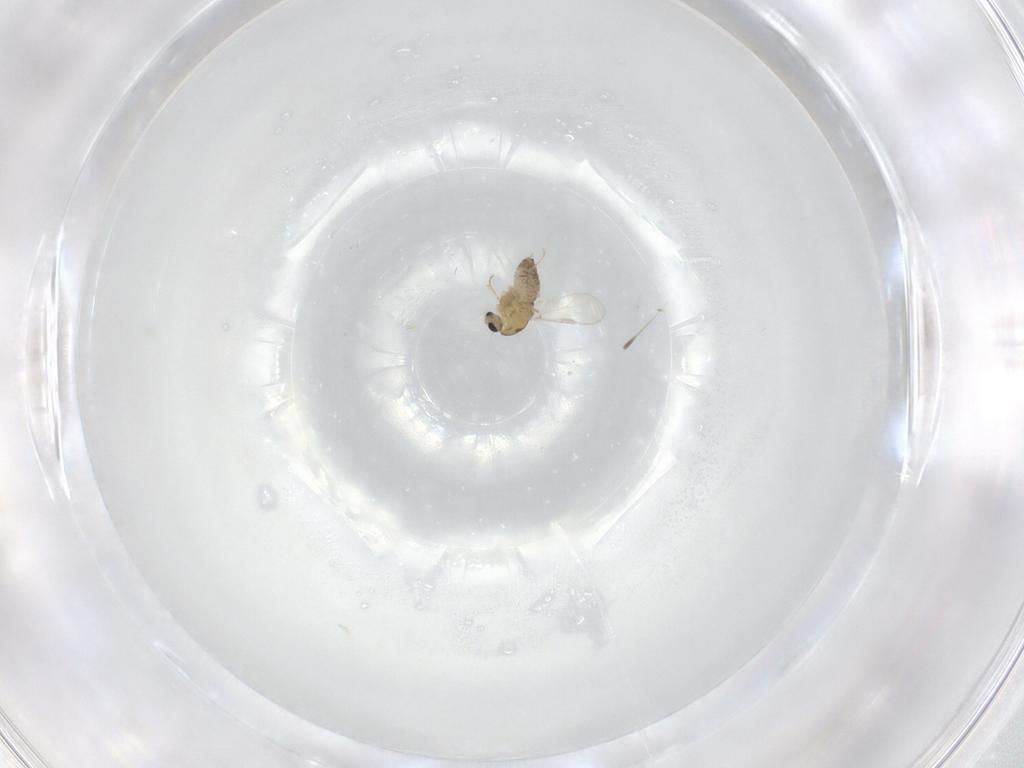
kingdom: Animalia
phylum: Arthropoda
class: Insecta
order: Diptera
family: Chironomidae
